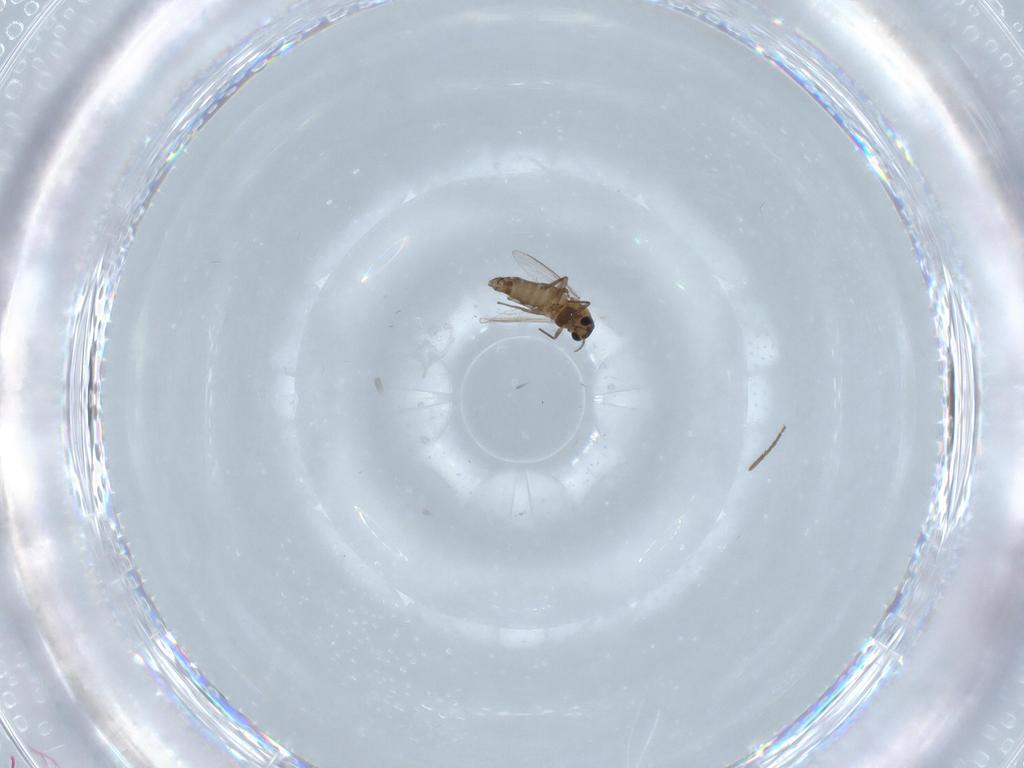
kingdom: Animalia
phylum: Arthropoda
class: Insecta
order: Diptera
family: Chironomidae
